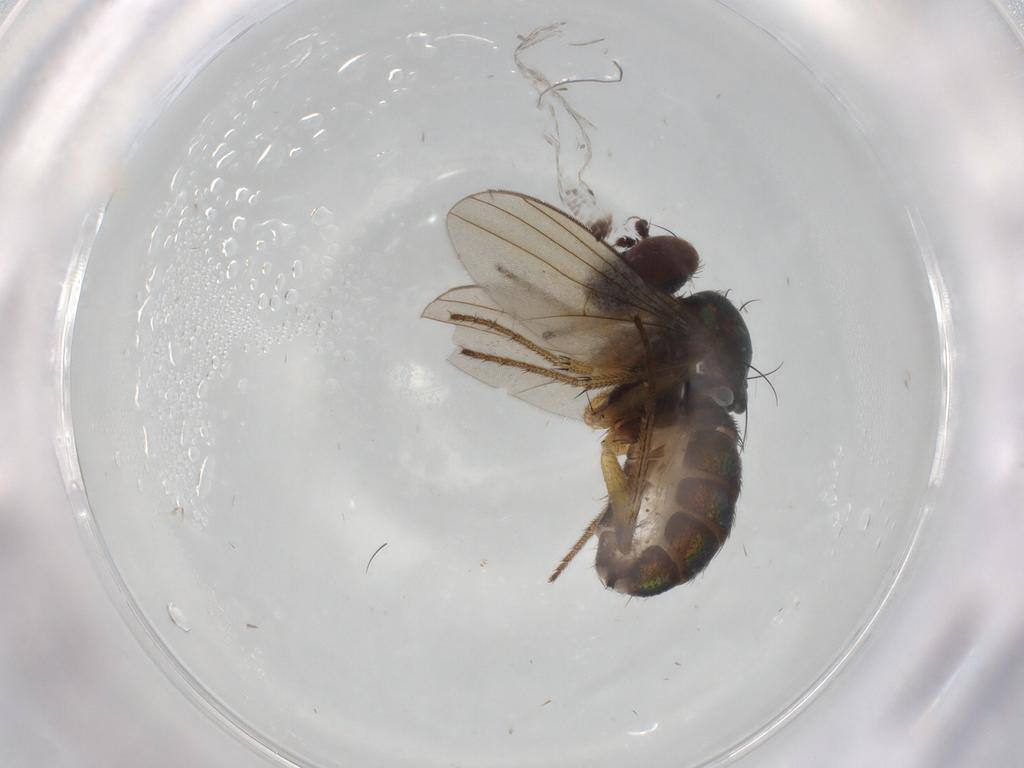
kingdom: Animalia
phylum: Arthropoda
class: Insecta
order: Diptera
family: Dolichopodidae
